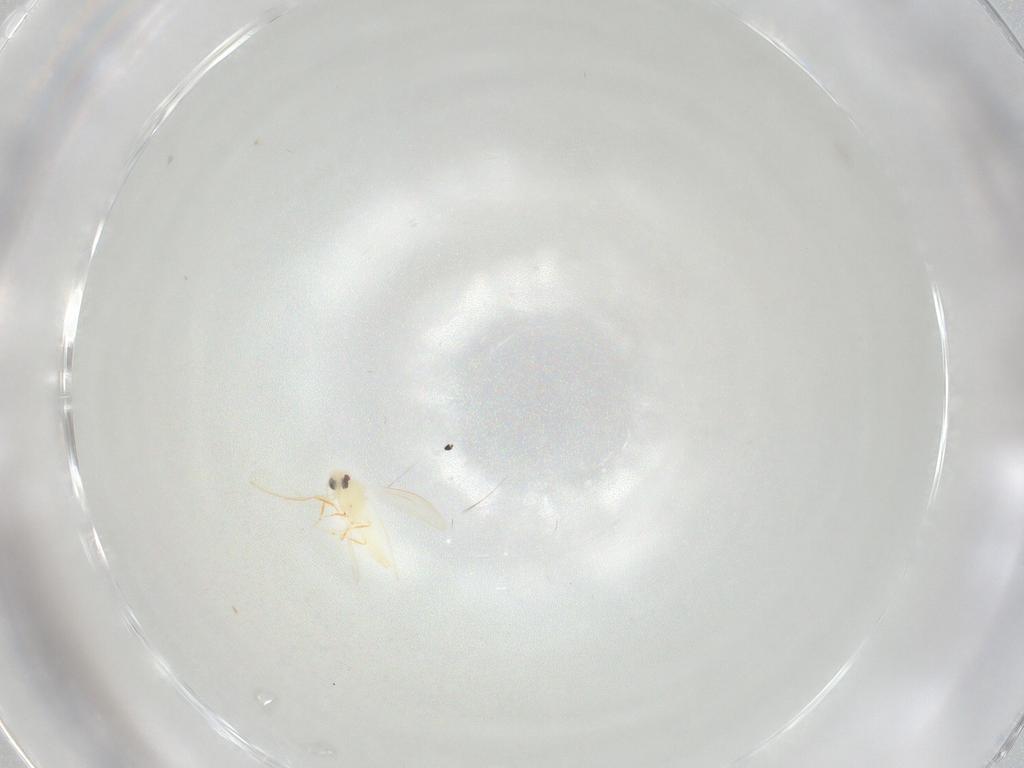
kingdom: Animalia
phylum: Arthropoda
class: Insecta
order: Hemiptera
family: Aleyrodidae
